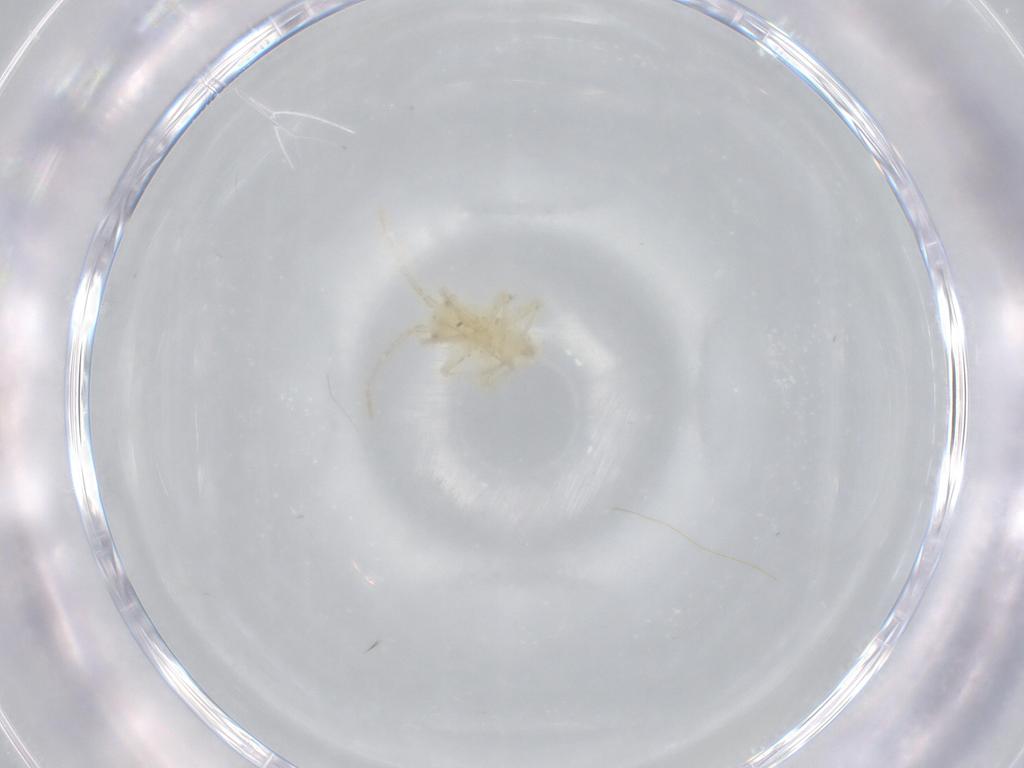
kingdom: Animalia
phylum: Arthropoda
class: Insecta
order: Hemiptera
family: Miridae
